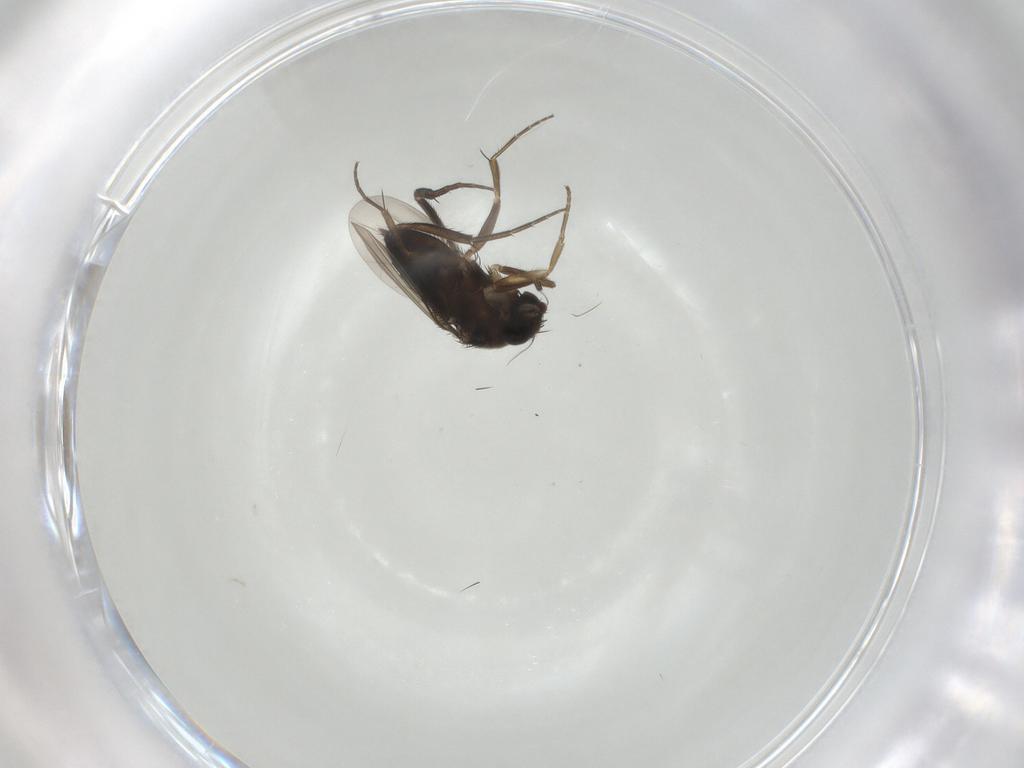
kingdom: Animalia
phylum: Arthropoda
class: Insecta
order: Diptera
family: Phoridae
